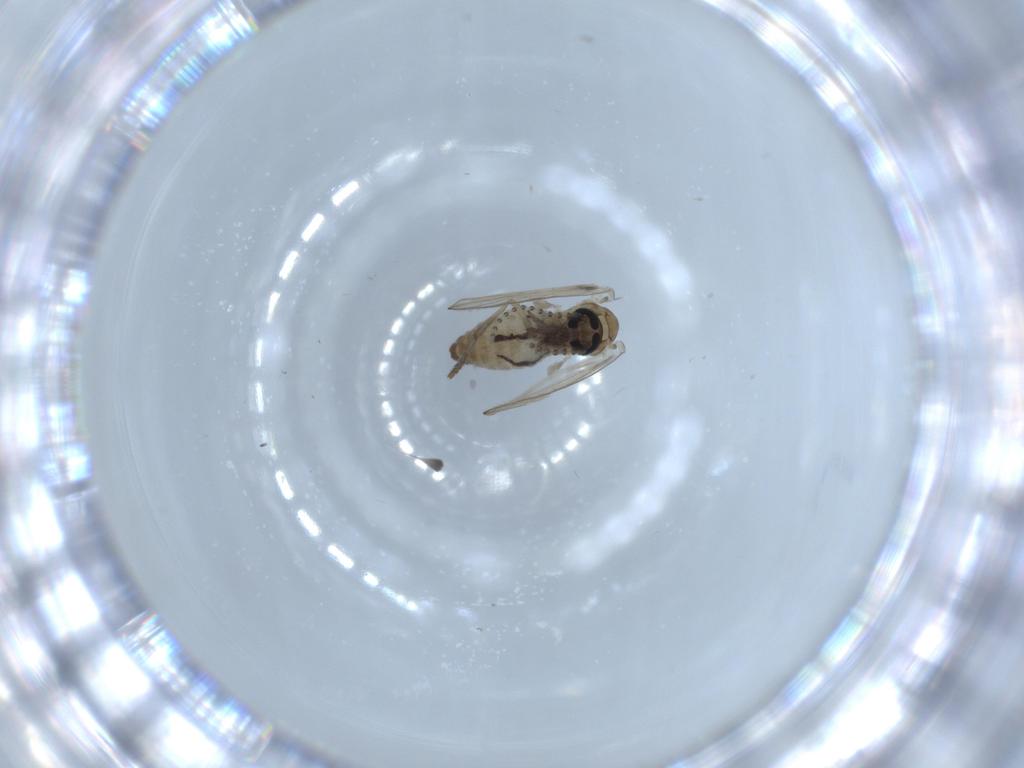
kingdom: Animalia
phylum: Arthropoda
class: Insecta
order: Diptera
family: Psychodidae
